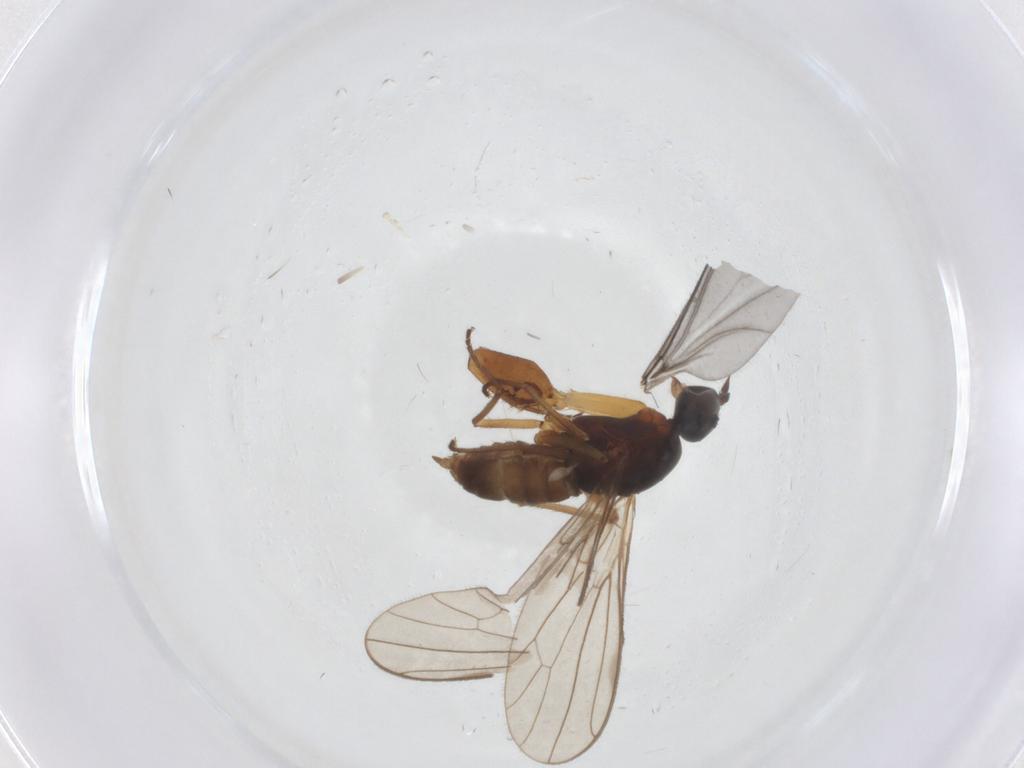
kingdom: Animalia
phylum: Arthropoda
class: Insecta
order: Diptera
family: Empididae
